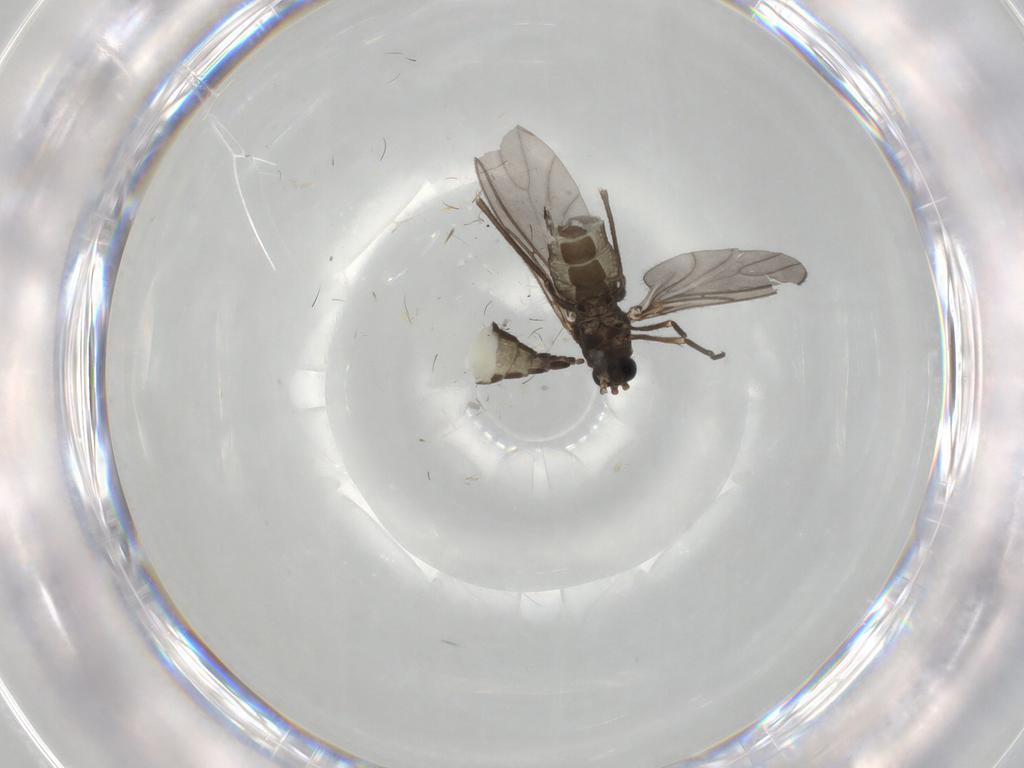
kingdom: Animalia
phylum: Arthropoda
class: Insecta
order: Diptera
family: Sciaridae
